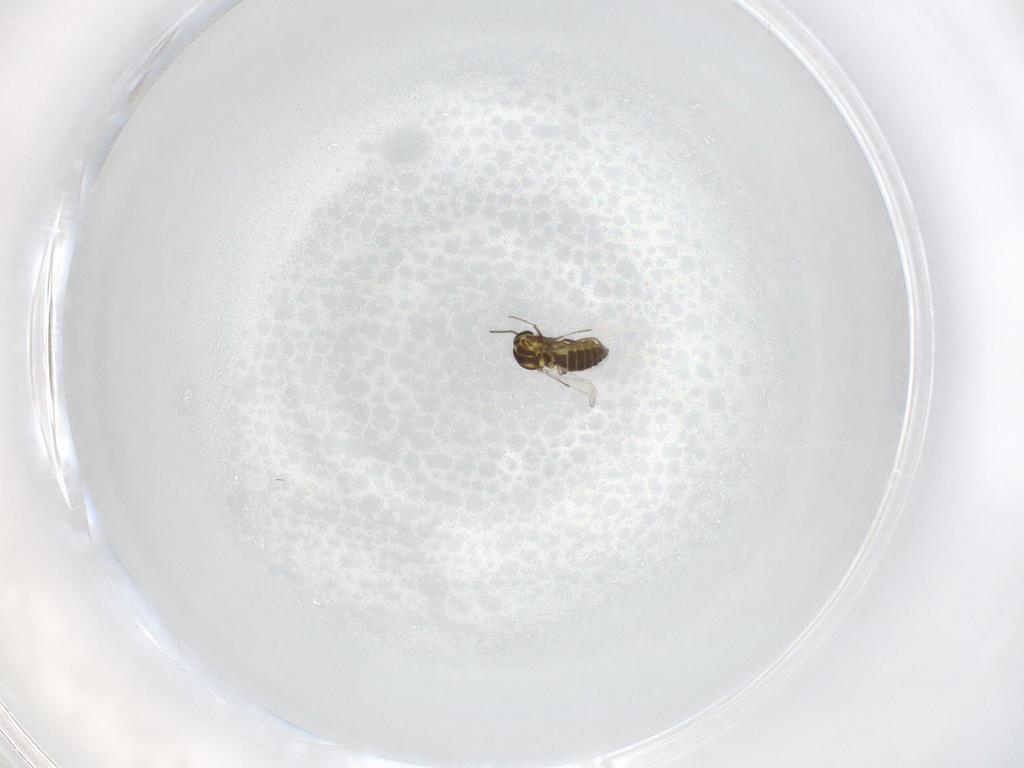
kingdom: Animalia
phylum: Arthropoda
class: Insecta
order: Diptera
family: Ceratopogonidae
